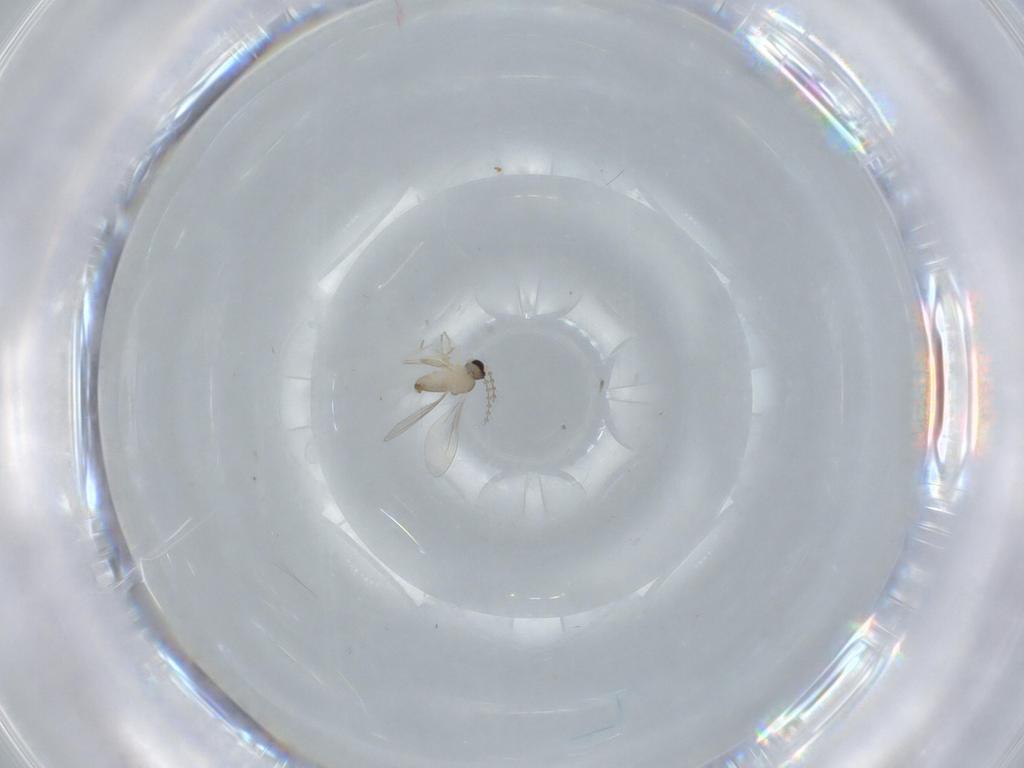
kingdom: Animalia
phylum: Arthropoda
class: Insecta
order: Diptera
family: Cecidomyiidae
